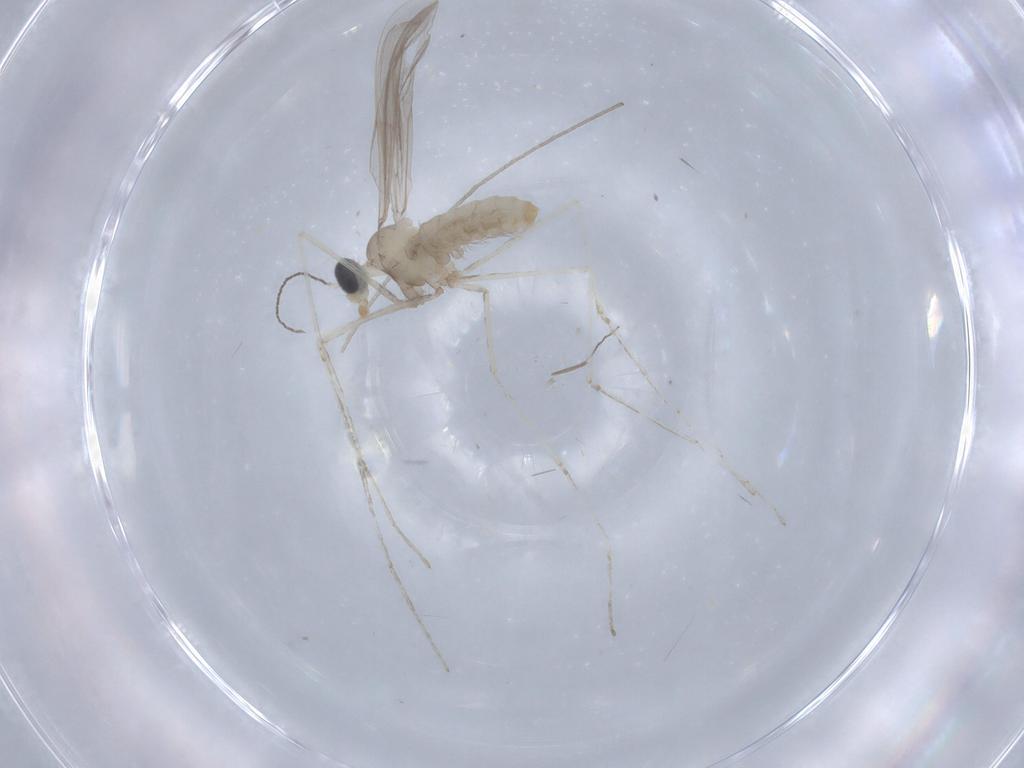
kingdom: Animalia
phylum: Arthropoda
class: Insecta
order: Diptera
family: Cecidomyiidae
